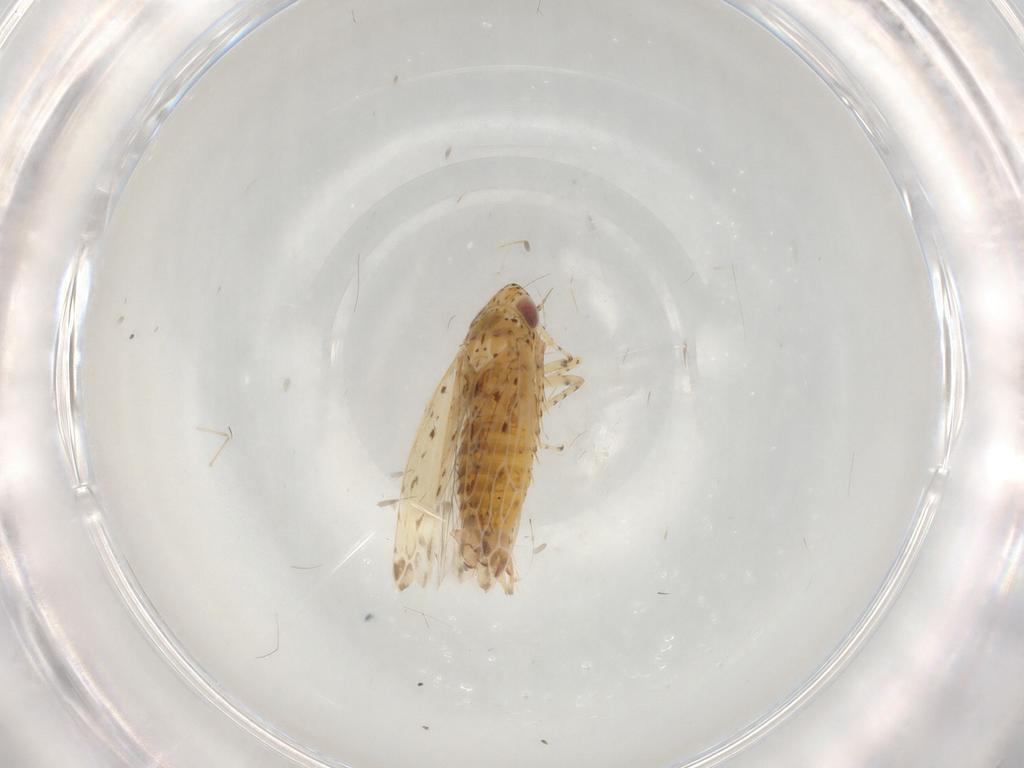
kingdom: Animalia
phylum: Arthropoda
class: Insecta
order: Hemiptera
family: Cicadellidae
